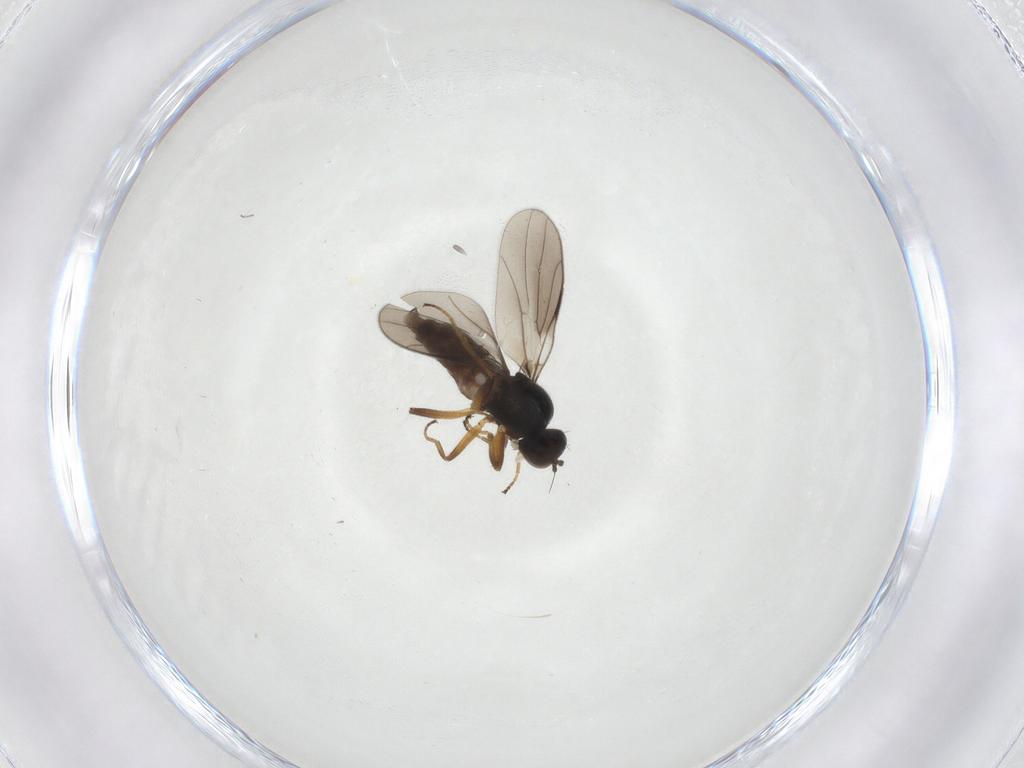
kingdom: Animalia
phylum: Arthropoda
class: Insecta
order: Diptera
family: Hybotidae
